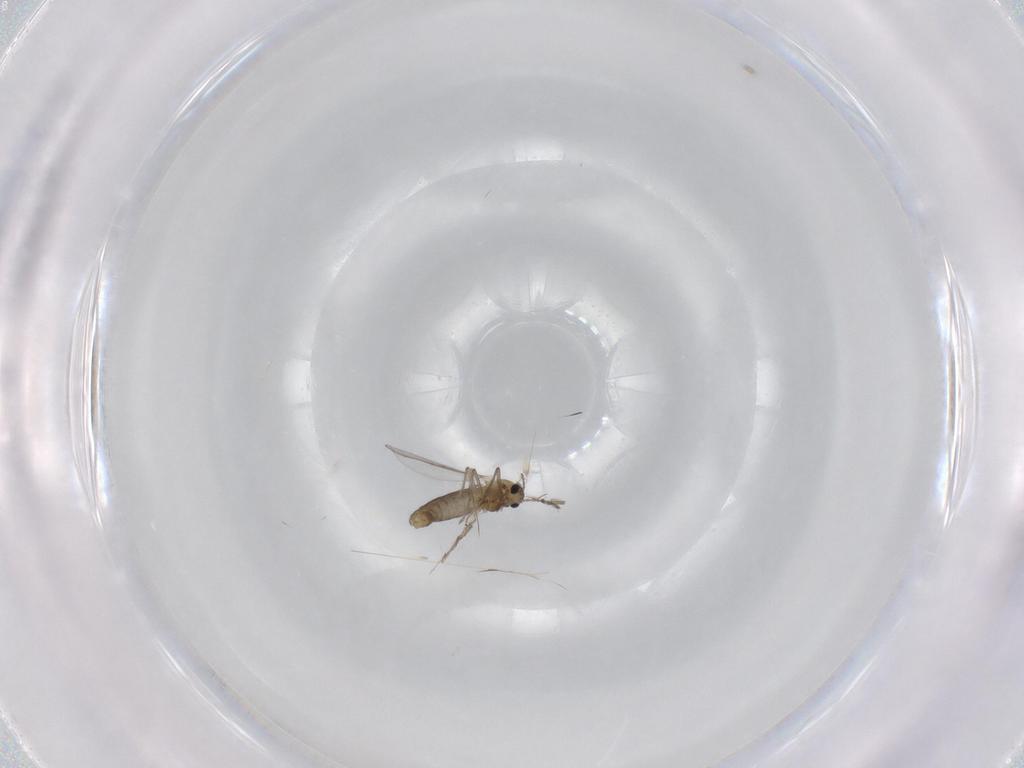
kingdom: Animalia
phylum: Arthropoda
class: Insecta
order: Diptera
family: Chironomidae
